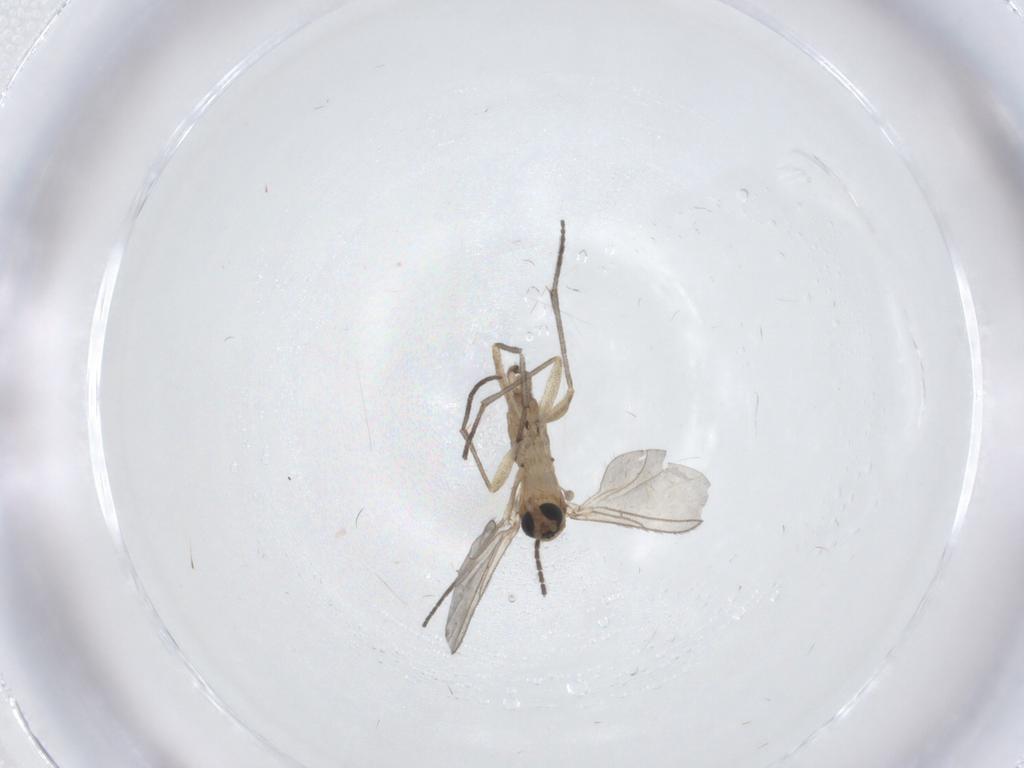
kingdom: Animalia
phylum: Arthropoda
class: Insecta
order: Diptera
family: Sciaridae
